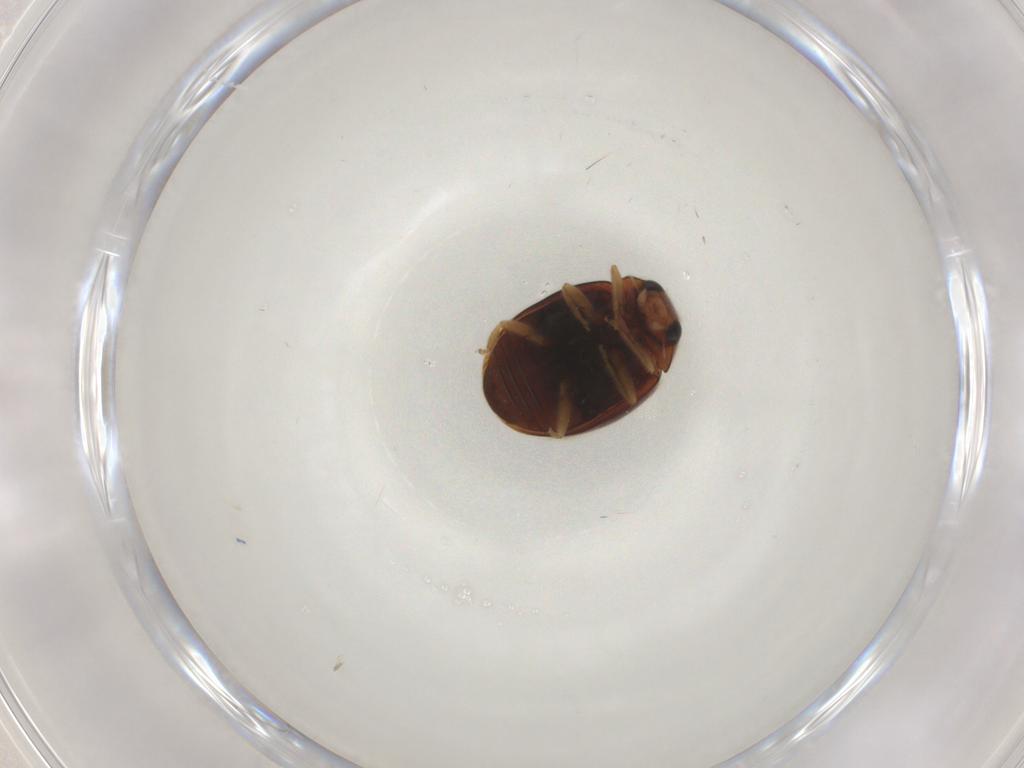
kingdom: Animalia
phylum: Arthropoda
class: Insecta
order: Coleoptera
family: Coccinellidae
